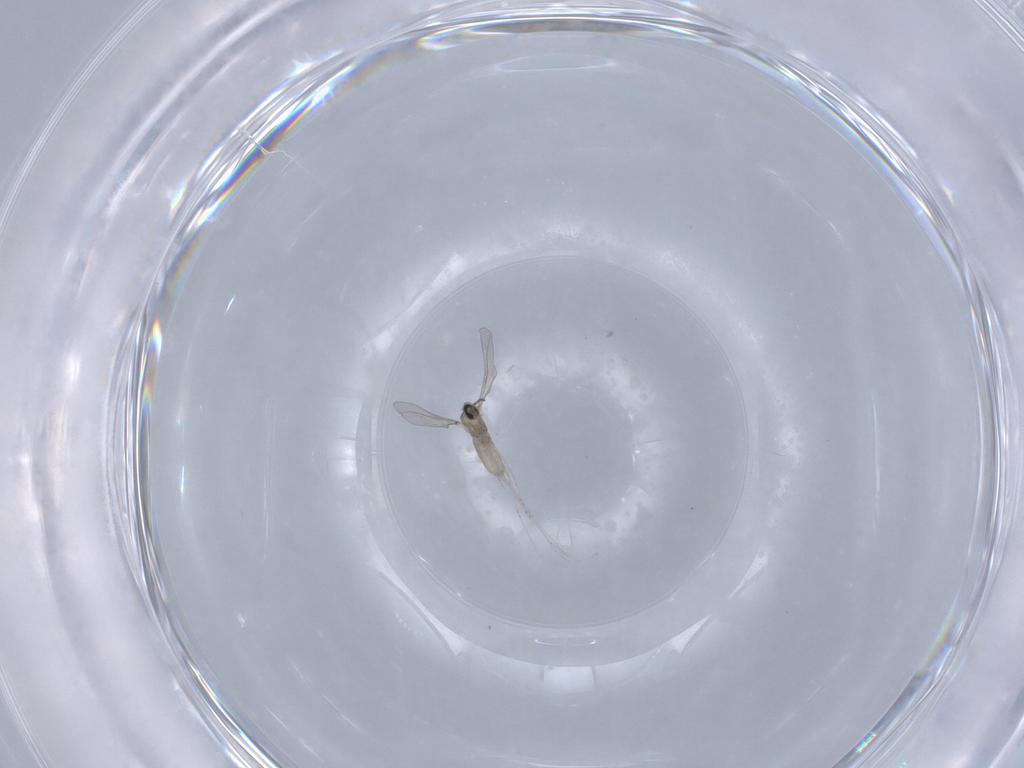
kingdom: Animalia
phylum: Arthropoda
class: Insecta
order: Diptera
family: Cecidomyiidae
